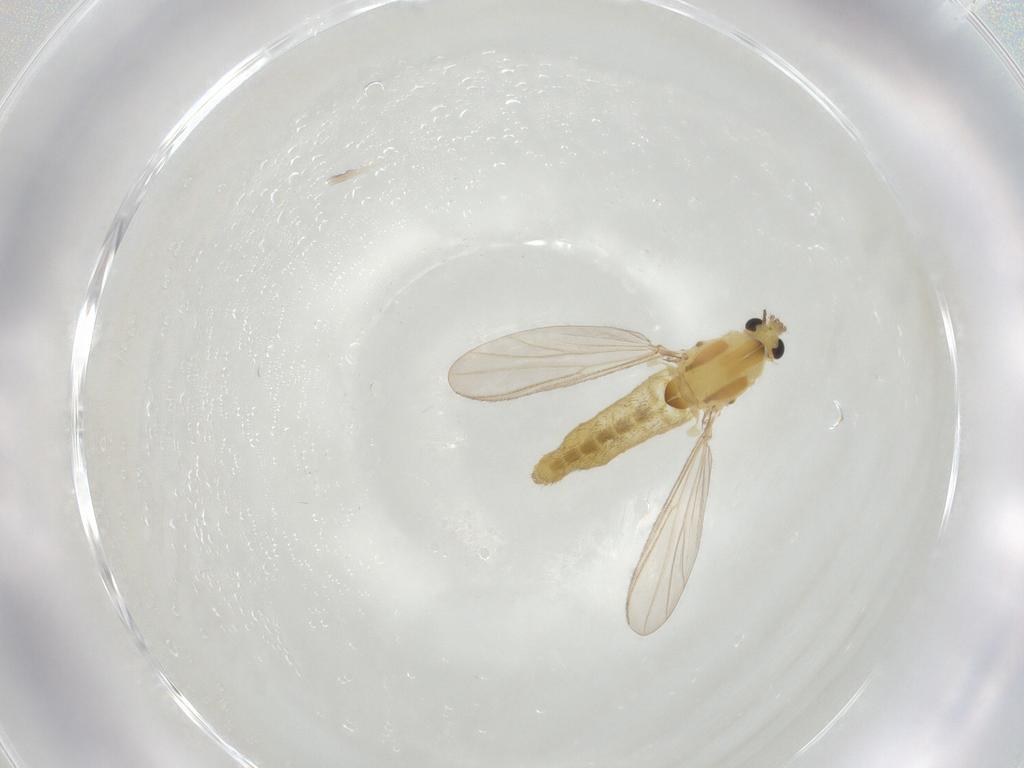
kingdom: Animalia
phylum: Arthropoda
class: Insecta
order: Diptera
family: Chironomidae
